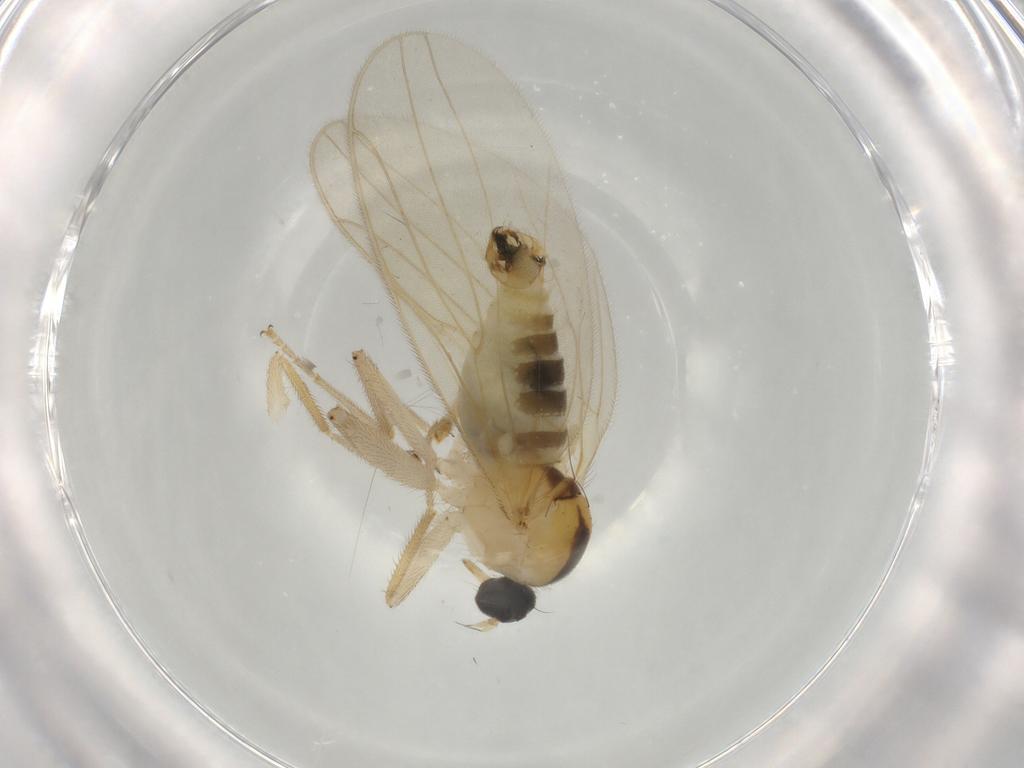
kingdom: Animalia
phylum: Arthropoda
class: Insecta
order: Diptera
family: Hybotidae
